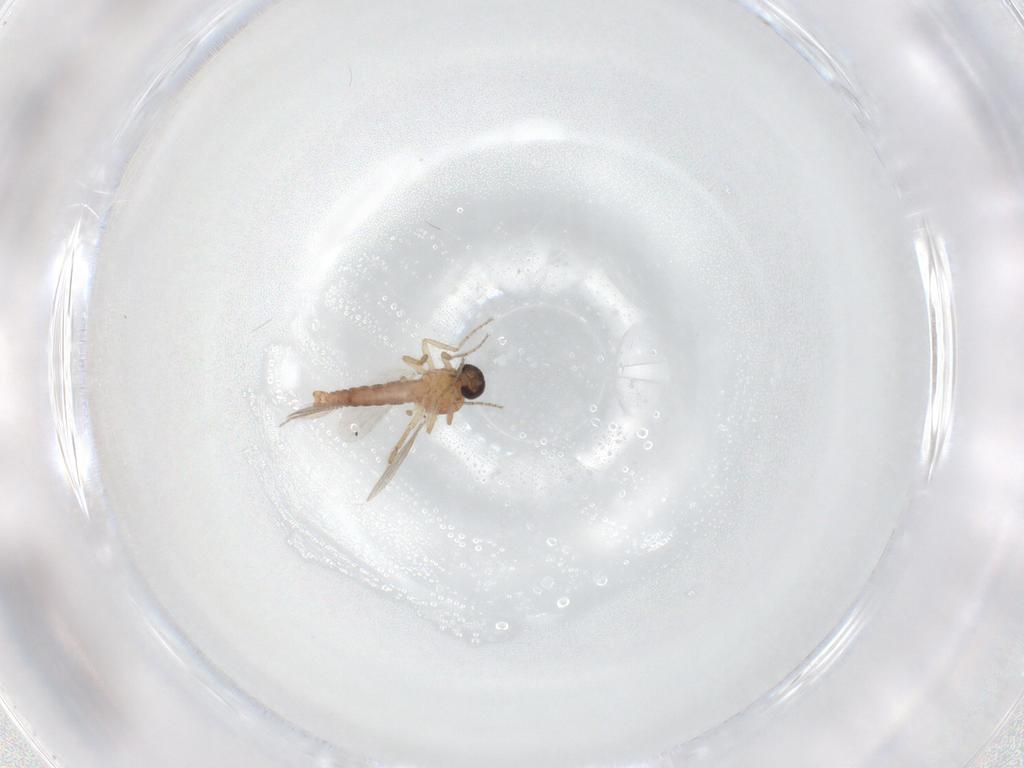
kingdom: Animalia
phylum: Arthropoda
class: Insecta
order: Diptera
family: Ceratopogonidae
